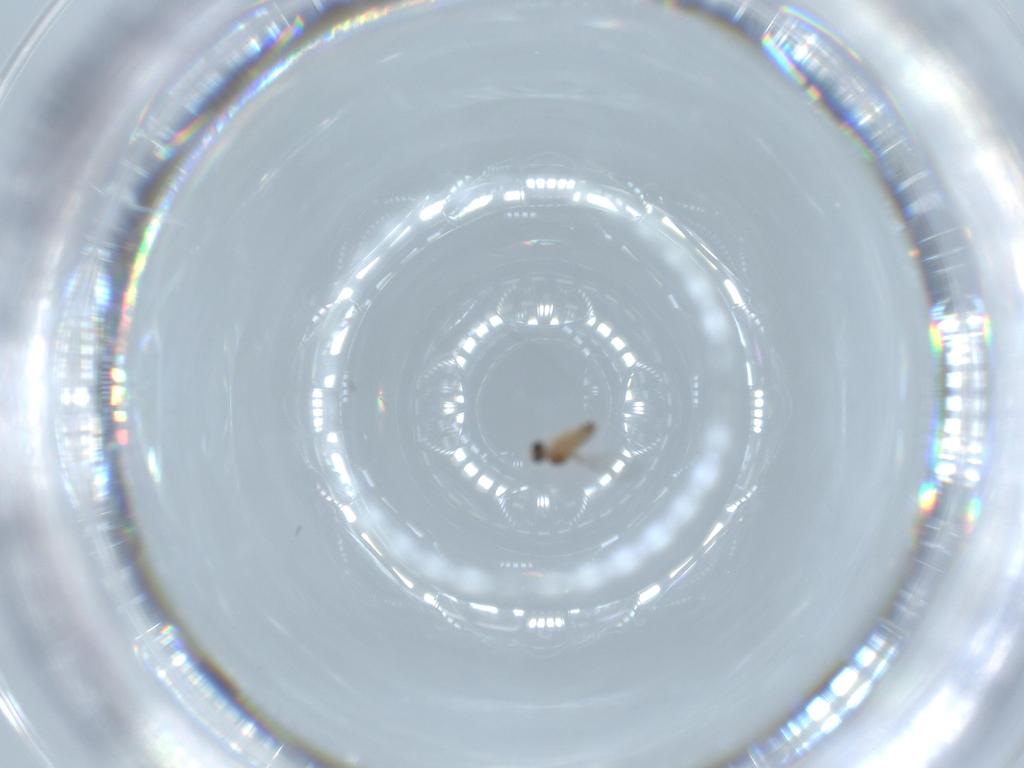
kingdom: Animalia
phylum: Arthropoda
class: Insecta
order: Diptera
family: Cecidomyiidae
